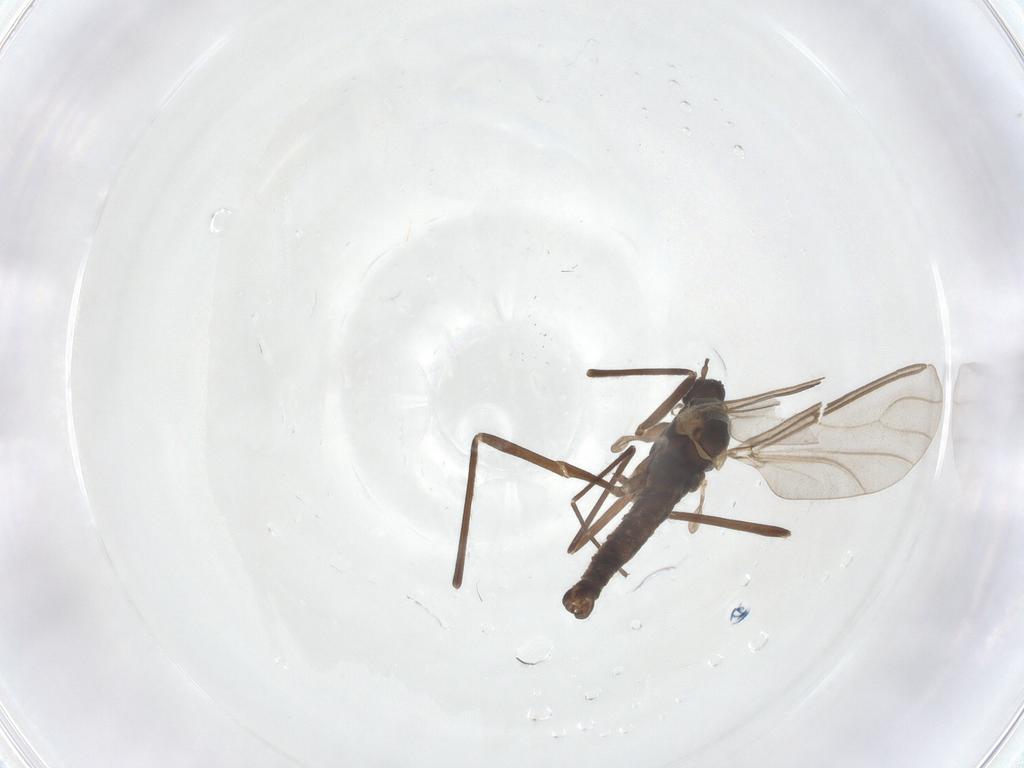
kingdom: Animalia
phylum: Arthropoda
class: Insecta
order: Diptera
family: Cecidomyiidae
